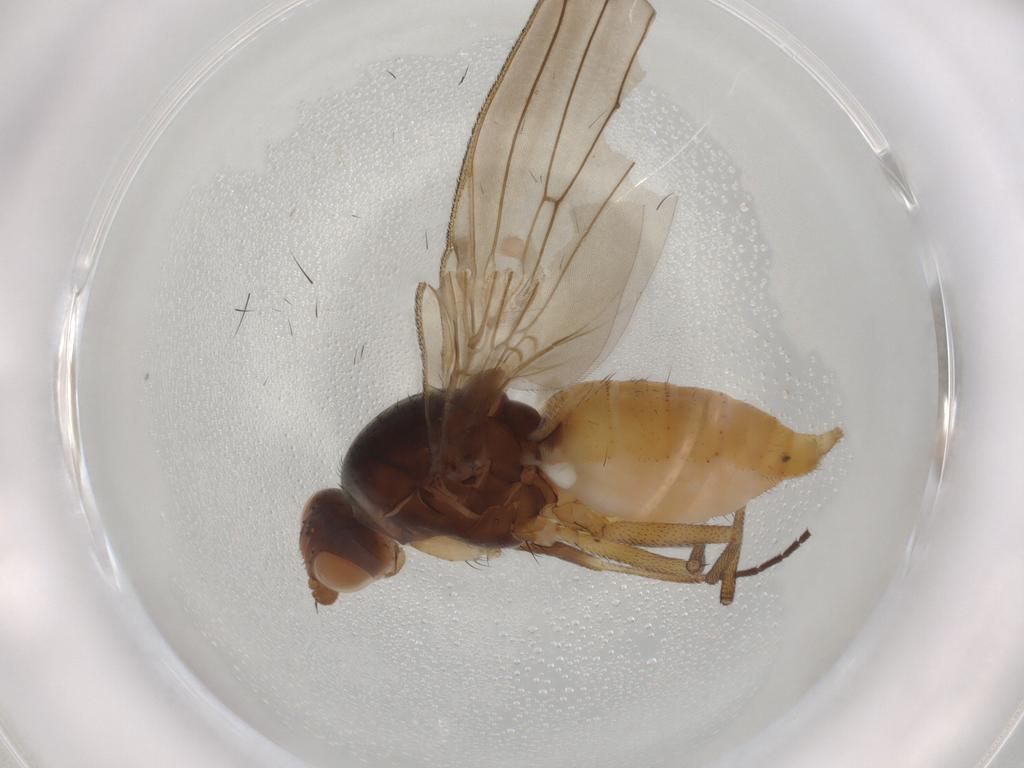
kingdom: Animalia
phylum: Arthropoda
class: Insecta
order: Diptera
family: Heleomyzidae
